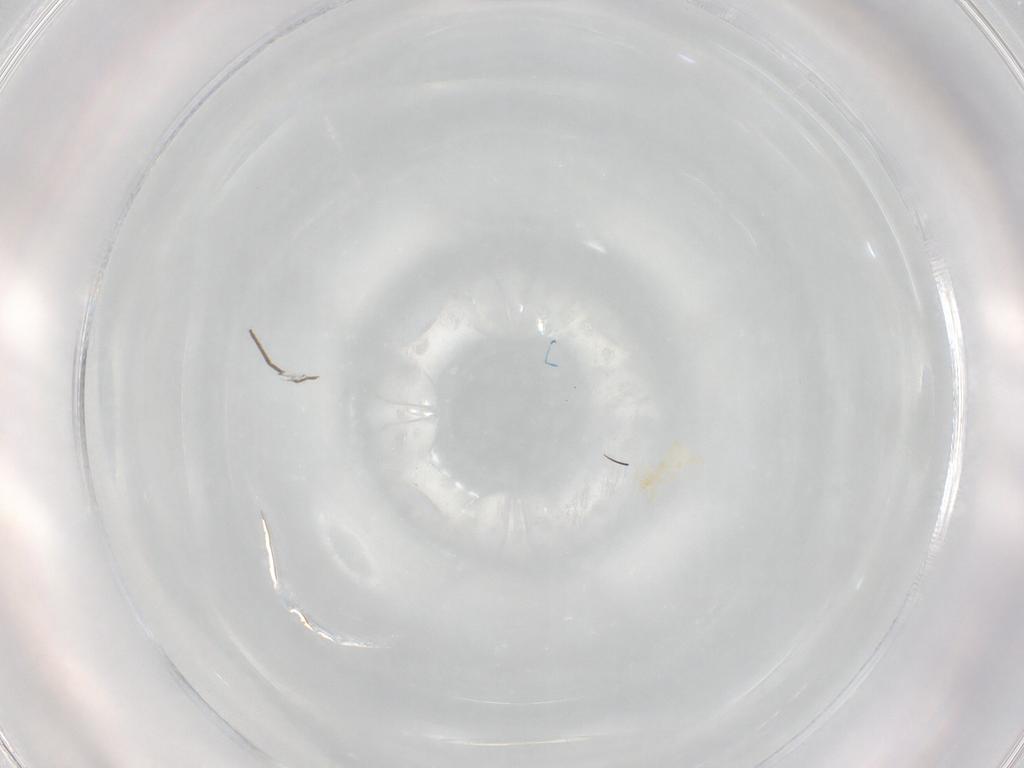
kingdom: Animalia
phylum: Arthropoda
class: Arachnida
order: Trombidiformes
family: Erythraeidae
